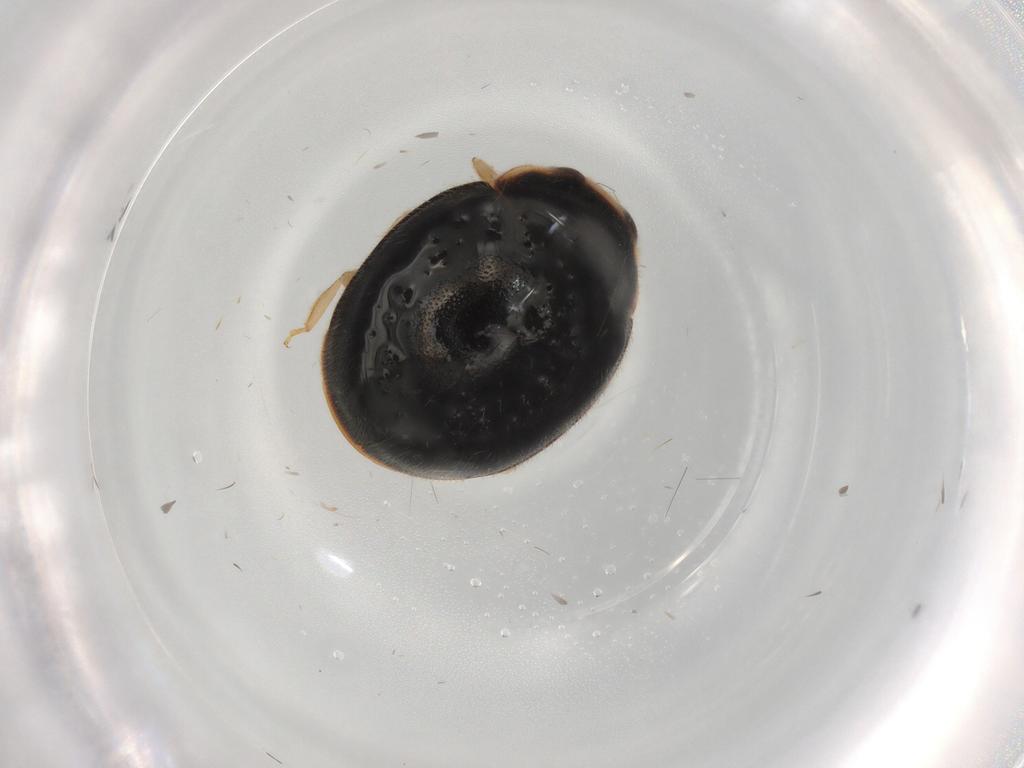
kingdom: Animalia
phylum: Arthropoda
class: Insecta
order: Coleoptera
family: Coccinellidae
